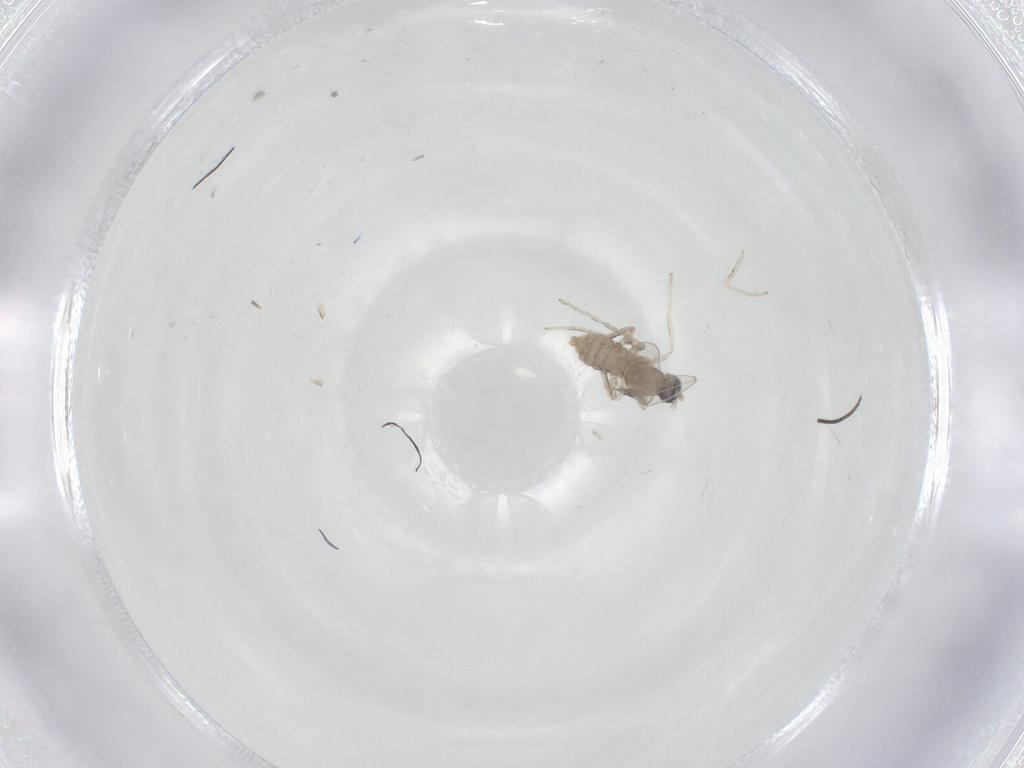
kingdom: Animalia
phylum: Arthropoda
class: Insecta
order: Diptera
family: Cecidomyiidae
